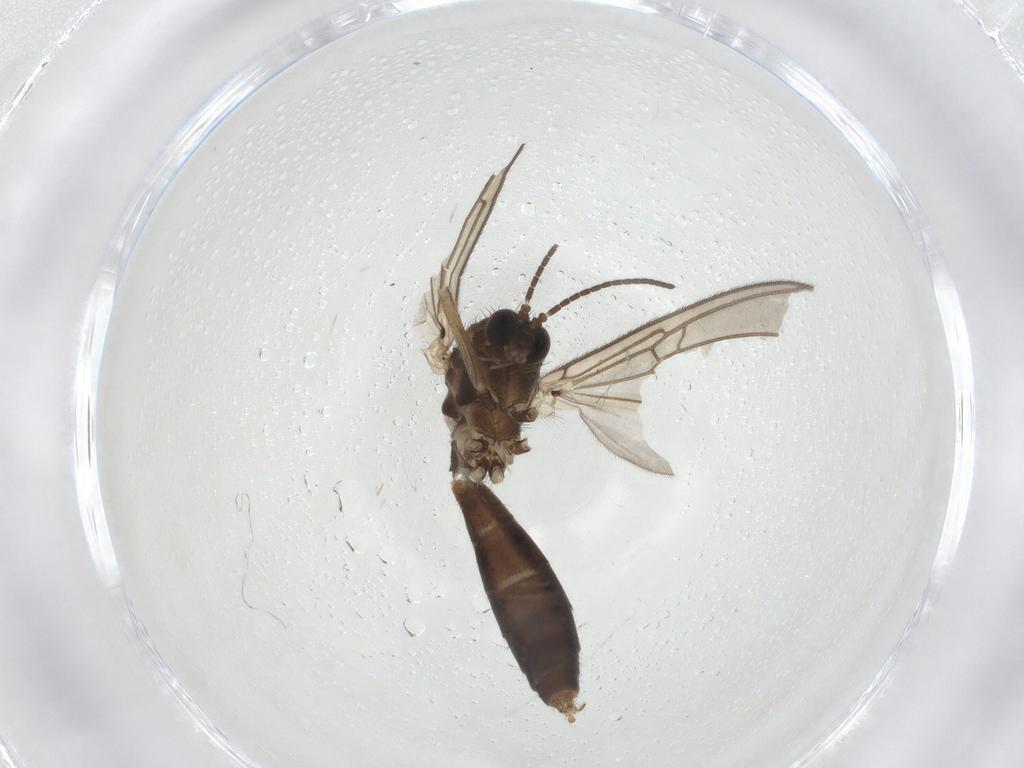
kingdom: Animalia
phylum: Arthropoda
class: Insecta
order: Diptera
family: Mycetophilidae
